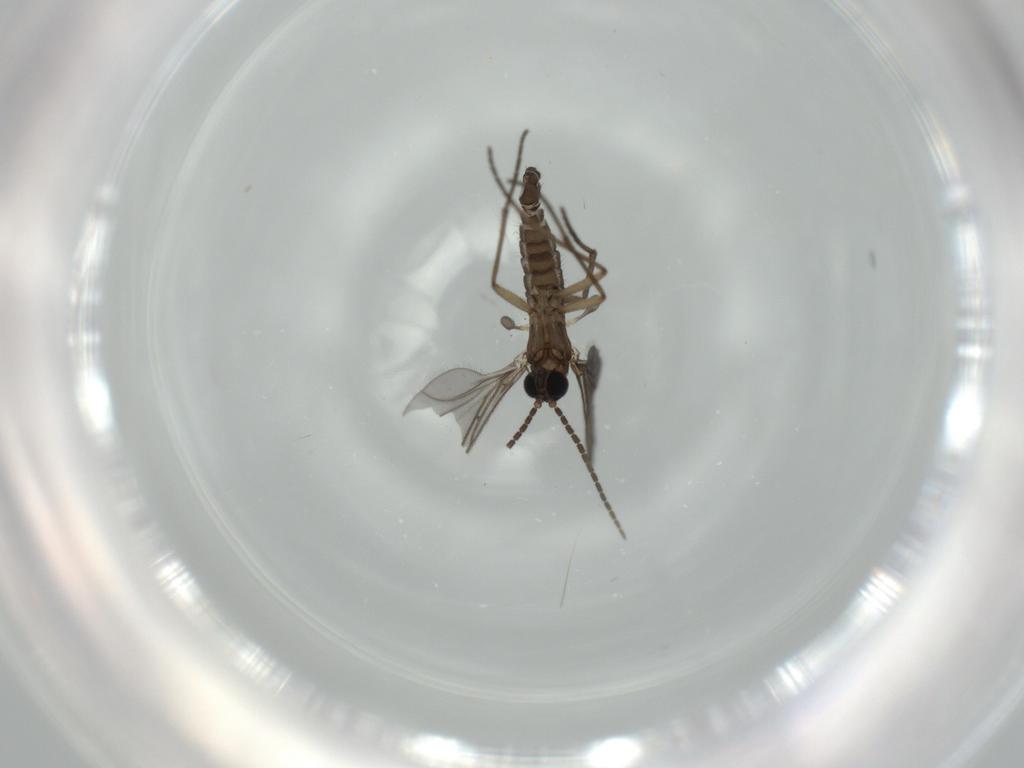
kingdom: Animalia
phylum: Arthropoda
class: Insecta
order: Diptera
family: Sciaridae
